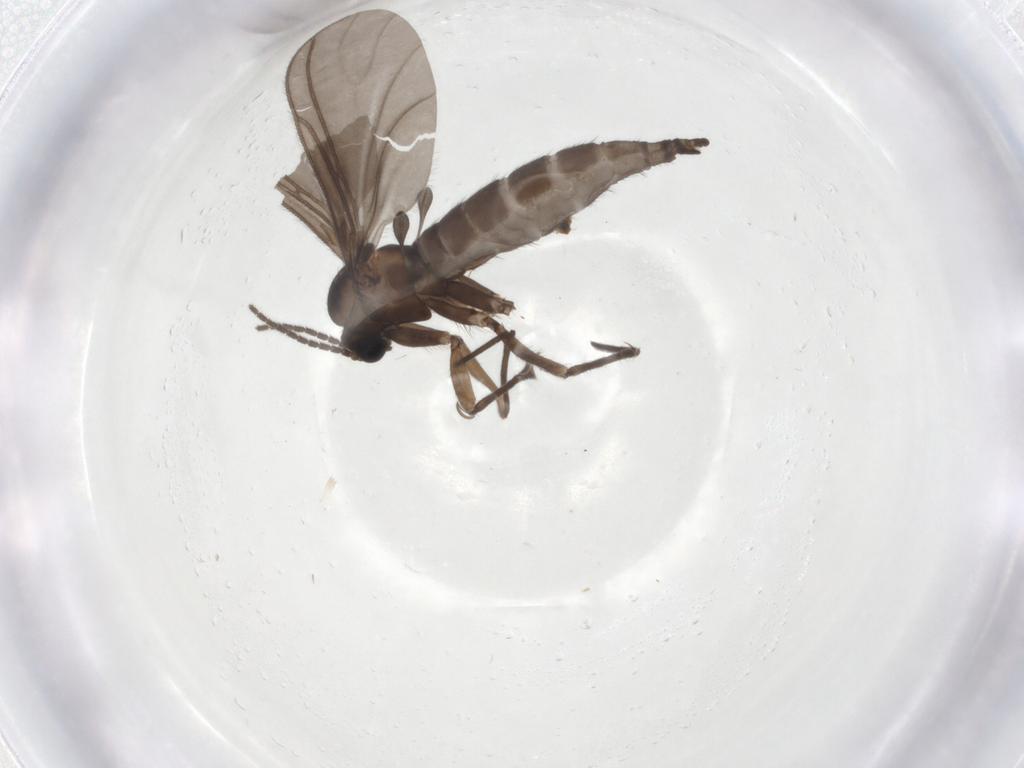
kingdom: Animalia
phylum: Arthropoda
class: Insecta
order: Diptera
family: Sciaridae
